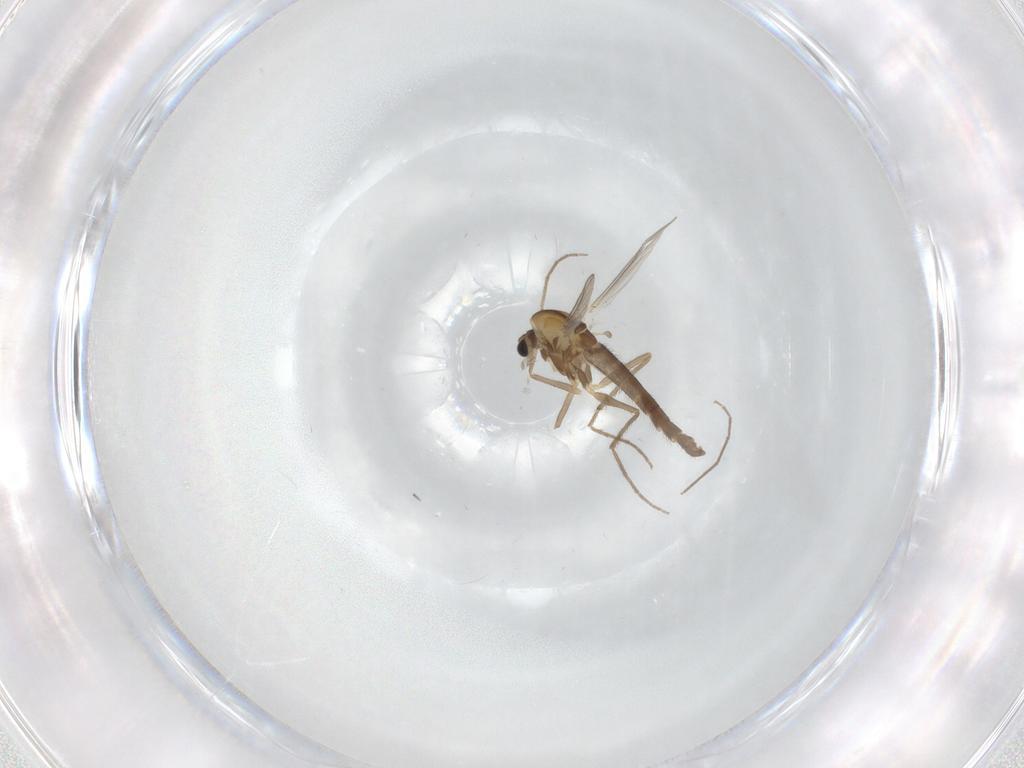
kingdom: Animalia
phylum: Arthropoda
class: Insecta
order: Diptera
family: Chironomidae
